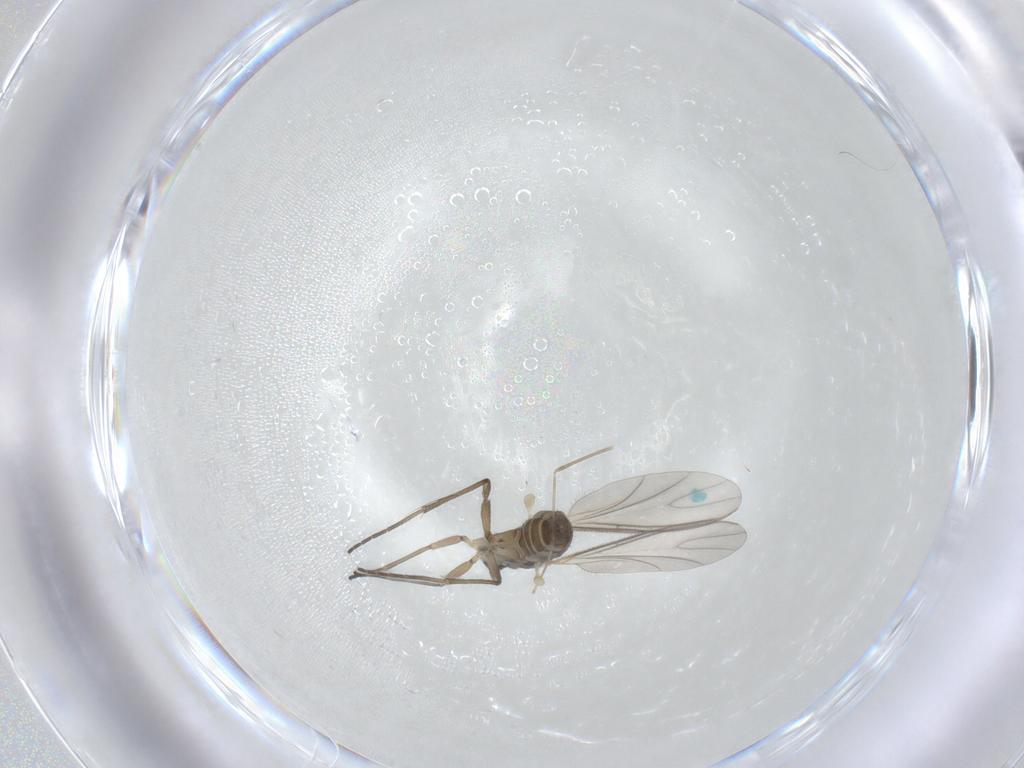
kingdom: Animalia
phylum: Arthropoda
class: Insecta
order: Diptera
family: Cecidomyiidae
